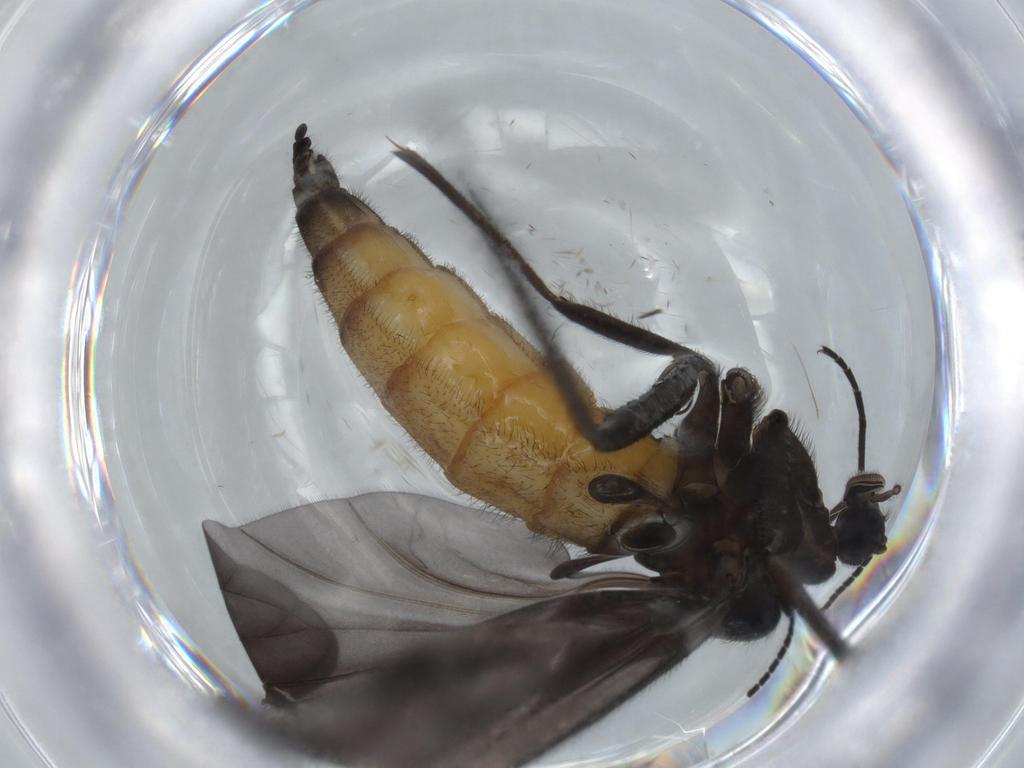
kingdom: Animalia
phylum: Arthropoda
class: Insecta
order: Diptera
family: Chironomidae
